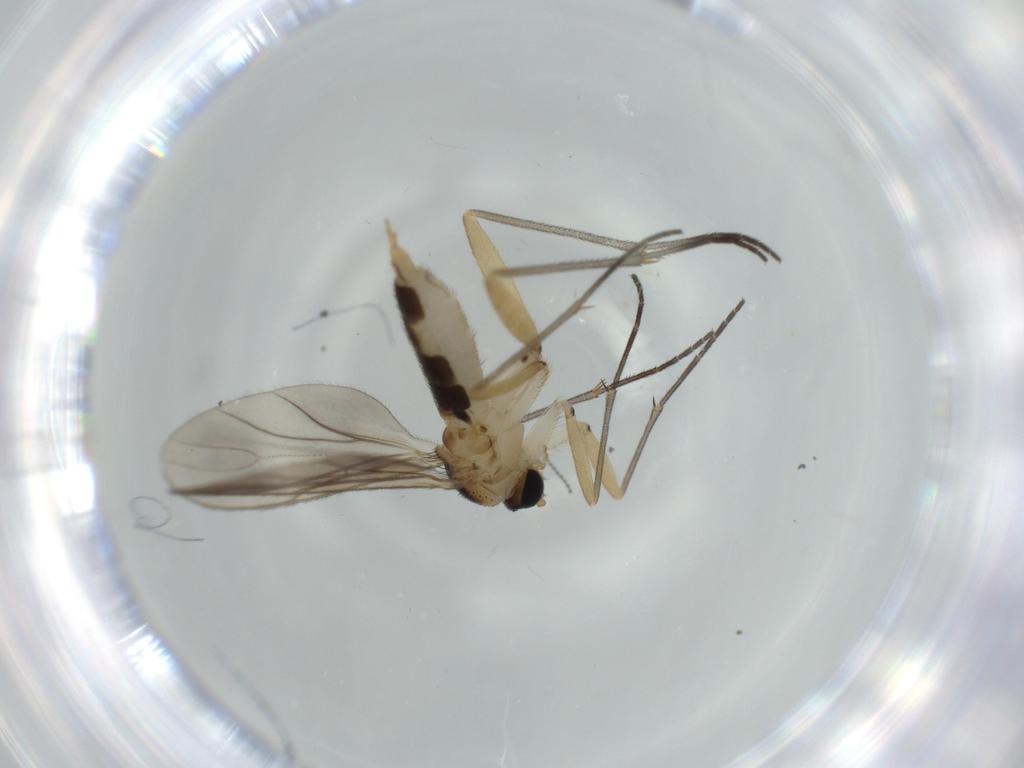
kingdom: Animalia
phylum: Arthropoda
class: Insecta
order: Diptera
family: Sciaridae
